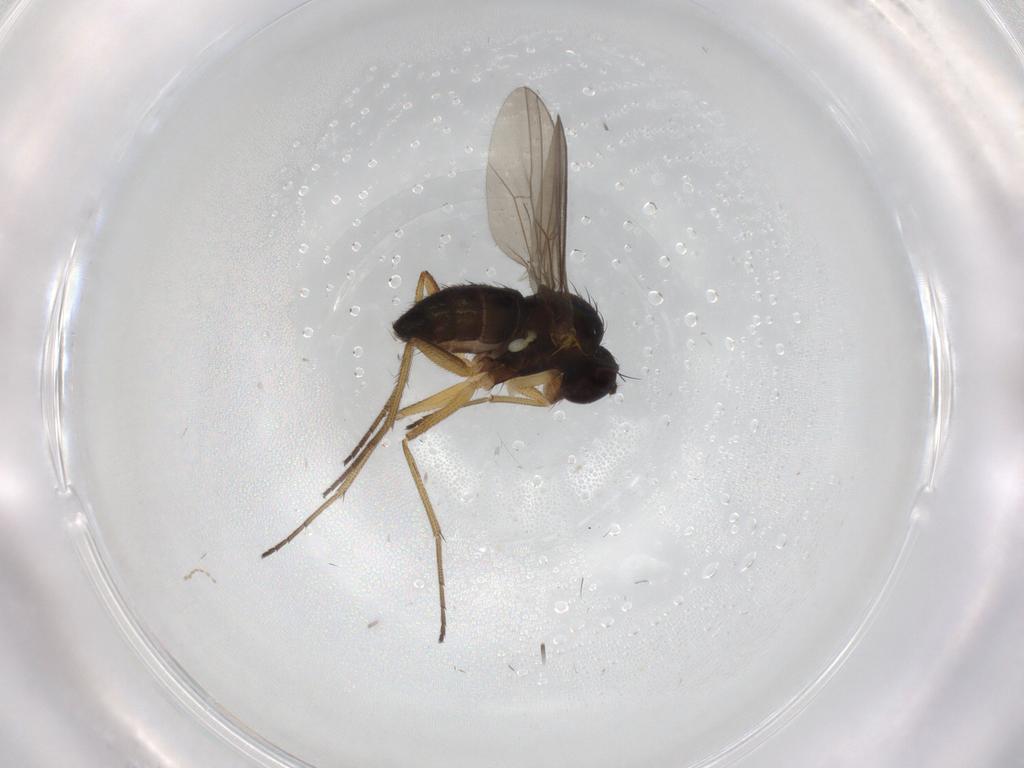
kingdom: Animalia
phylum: Arthropoda
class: Insecta
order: Diptera
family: Dolichopodidae
